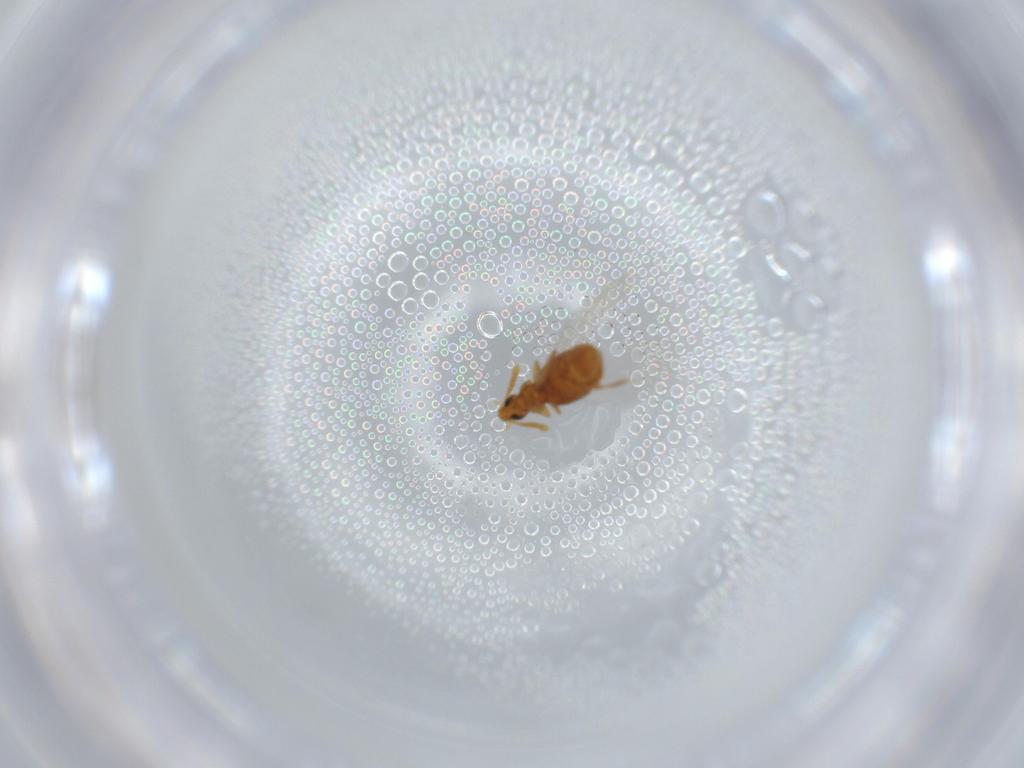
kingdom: Animalia
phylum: Arthropoda
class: Insecta
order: Coleoptera
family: Staphylinidae
